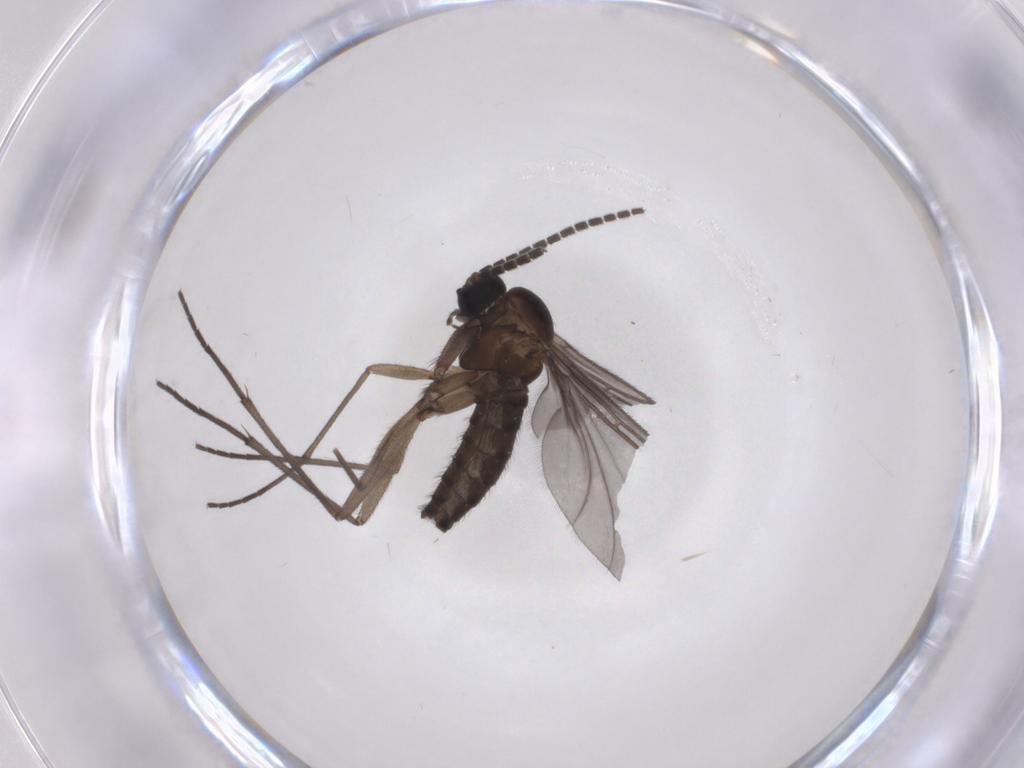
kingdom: Animalia
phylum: Arthropoda
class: Insecta
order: Diptera
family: Sciaridae
